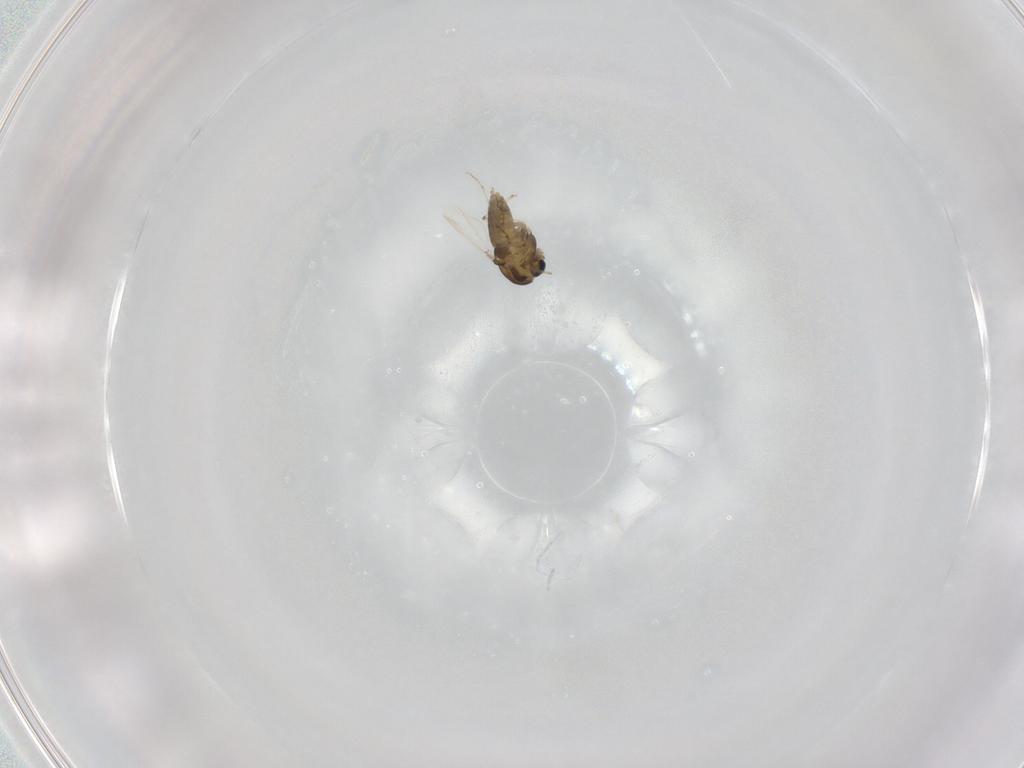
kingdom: Animalia
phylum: Arthropoda
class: Insecta
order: Diptera
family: Chironomidae
